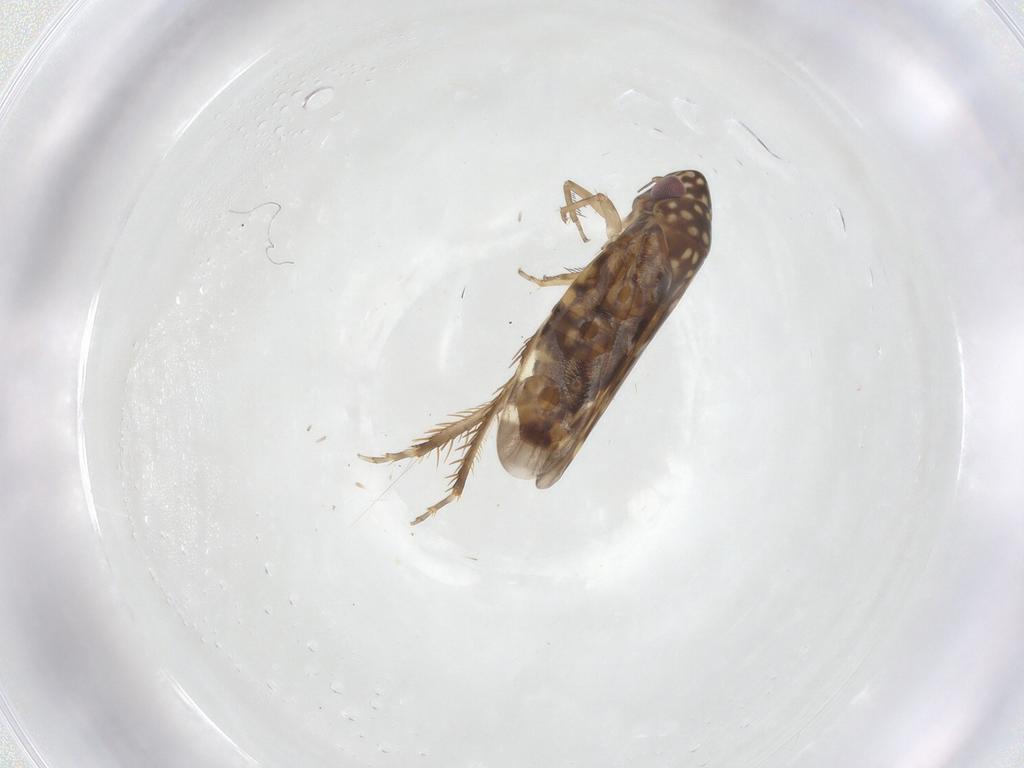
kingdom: Animalia
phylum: Arthropoda
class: Insecta
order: Hemiptera
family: Cicadellidae
